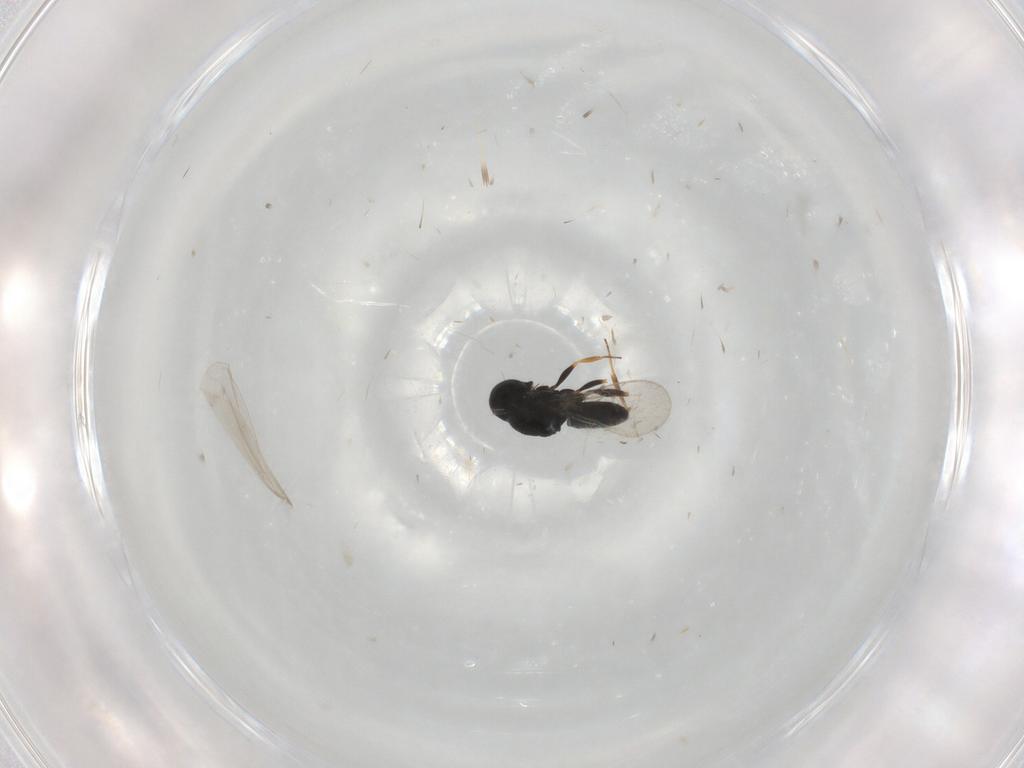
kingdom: Animalia
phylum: Arthropoda
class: Insecta
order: Hymenoptera
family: Scelionidae
